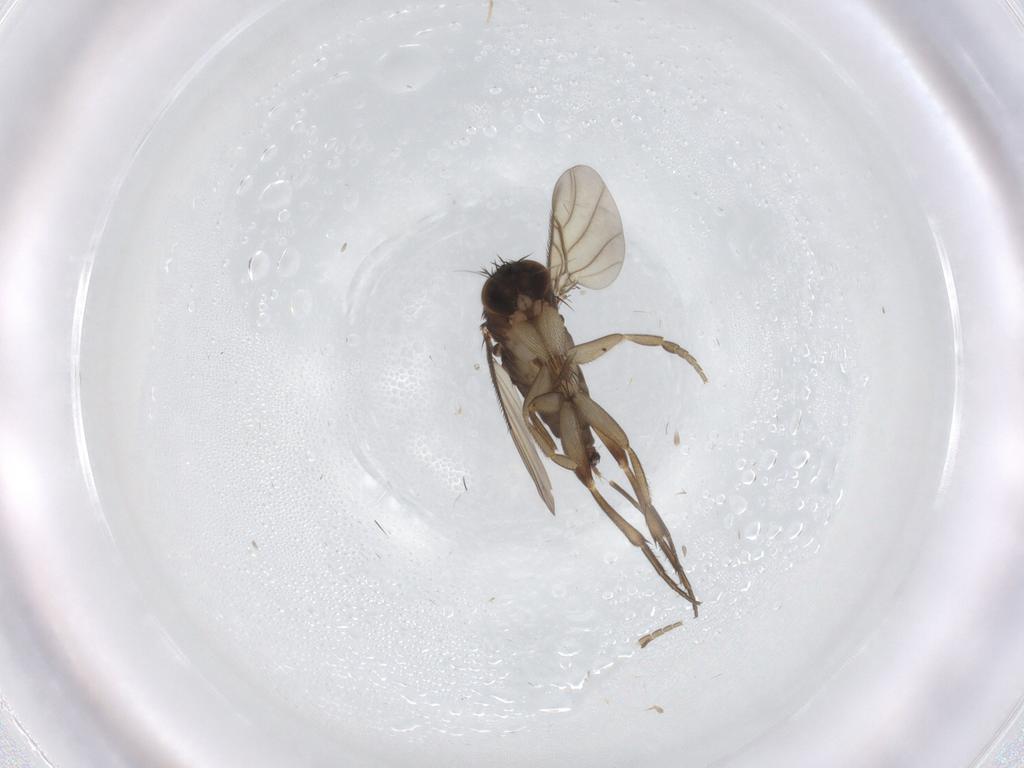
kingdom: Animalia
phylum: Arthropoda
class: Insecta
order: Diptera
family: Phoridae
